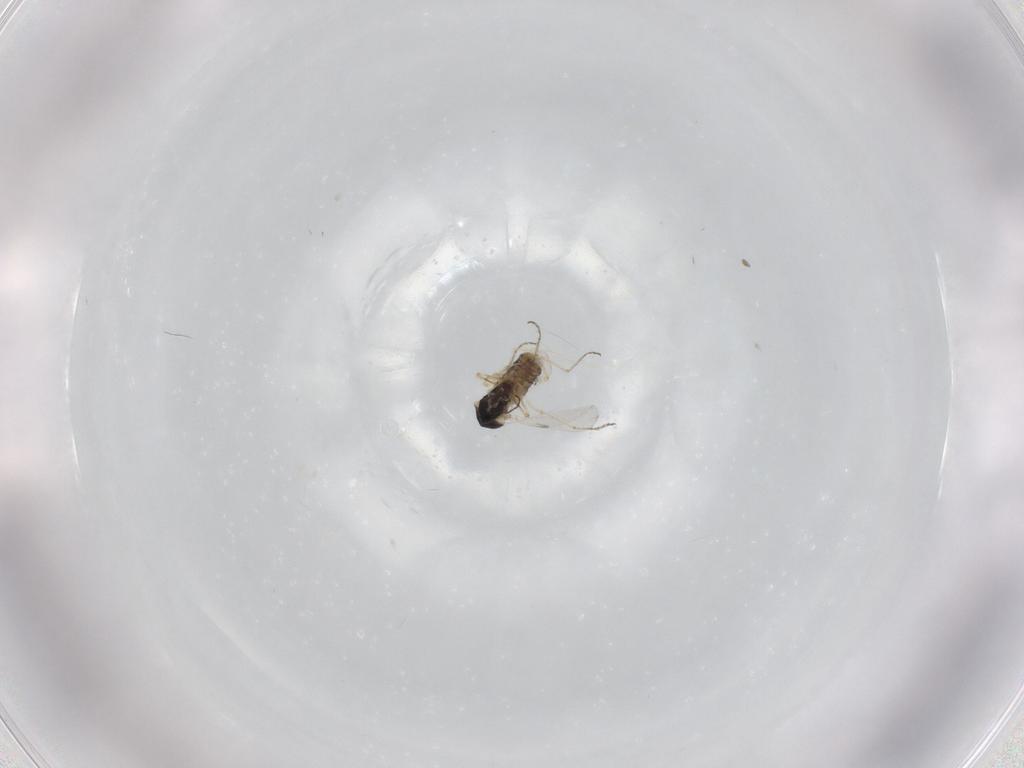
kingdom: Animalia
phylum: Arthropoda
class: Insecta
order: Diptera
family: Ceratopogonidae
